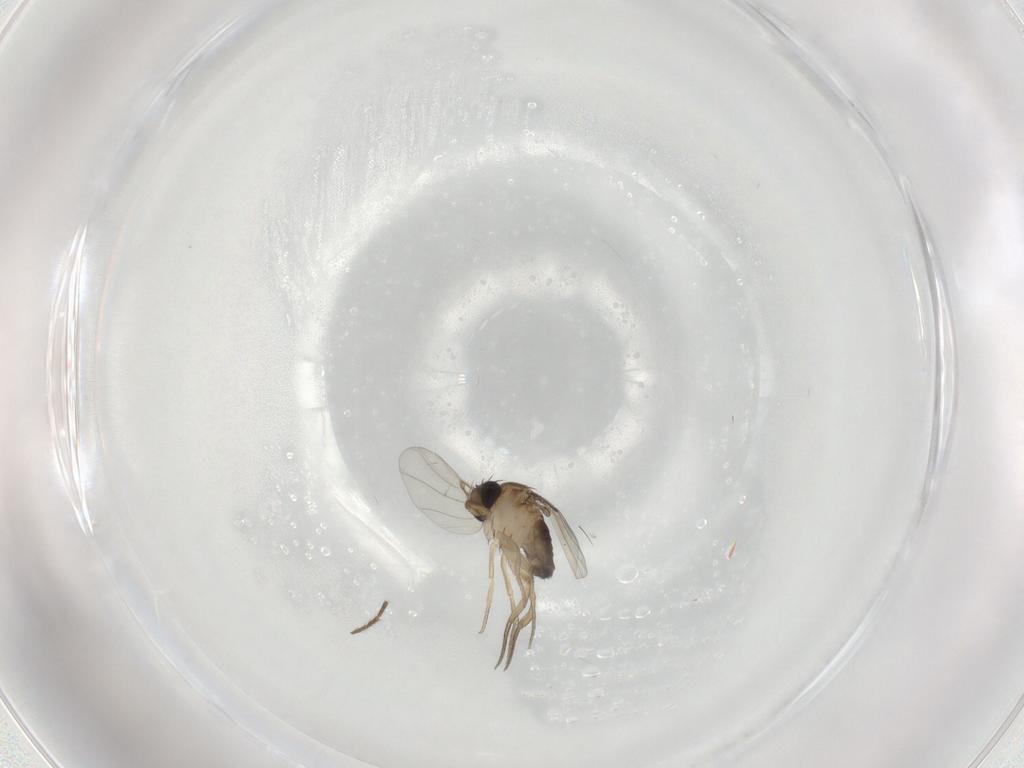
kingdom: Animalia
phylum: Arthropoda
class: Insecta
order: Diptera
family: Limoniidae
